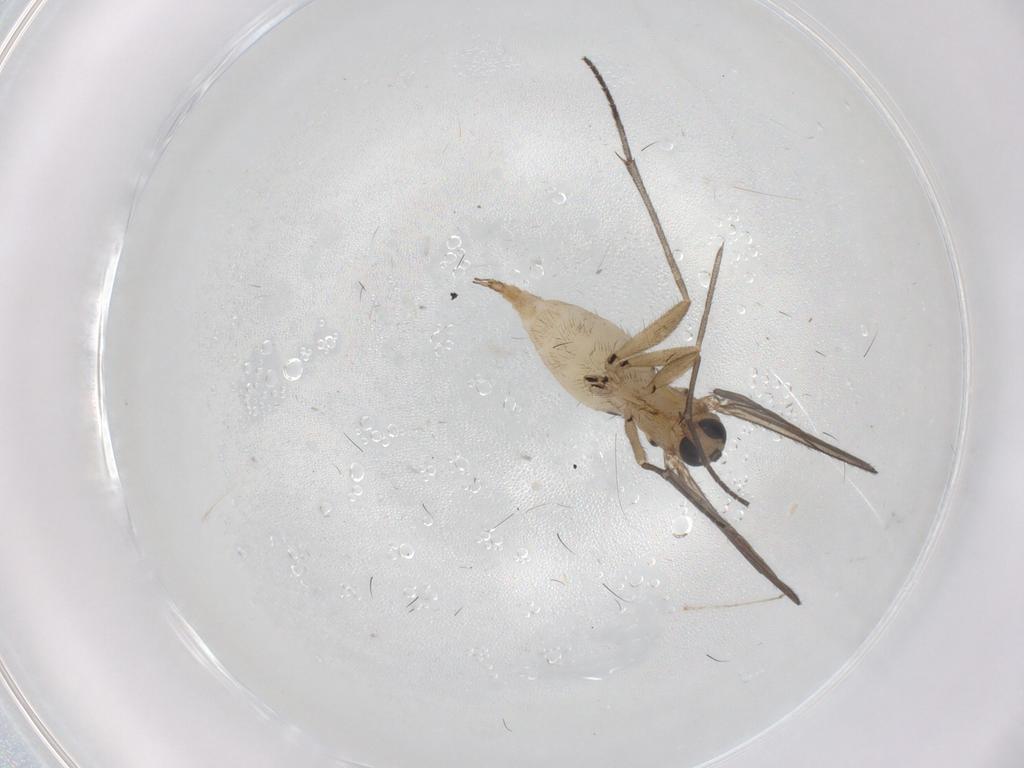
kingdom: Animalia
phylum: Arthropoda
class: Insecta
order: Diptera
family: Sciaridae
